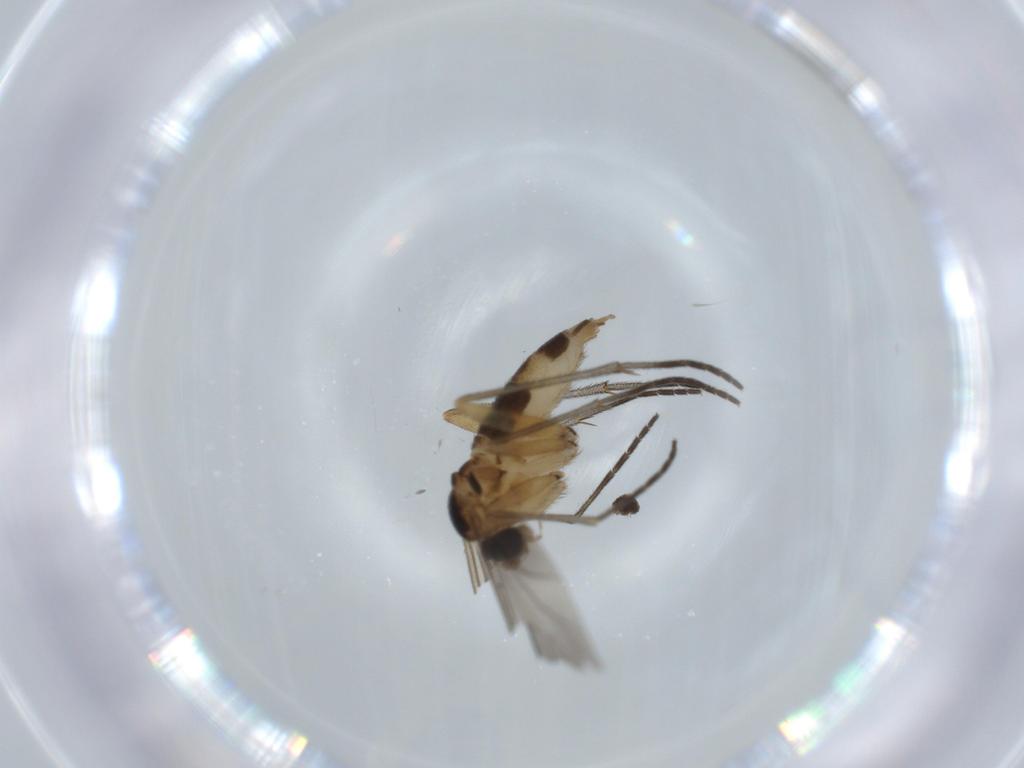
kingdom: Animalia
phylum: Arthropoda
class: Insecta
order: Diptera
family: Sciaridae
